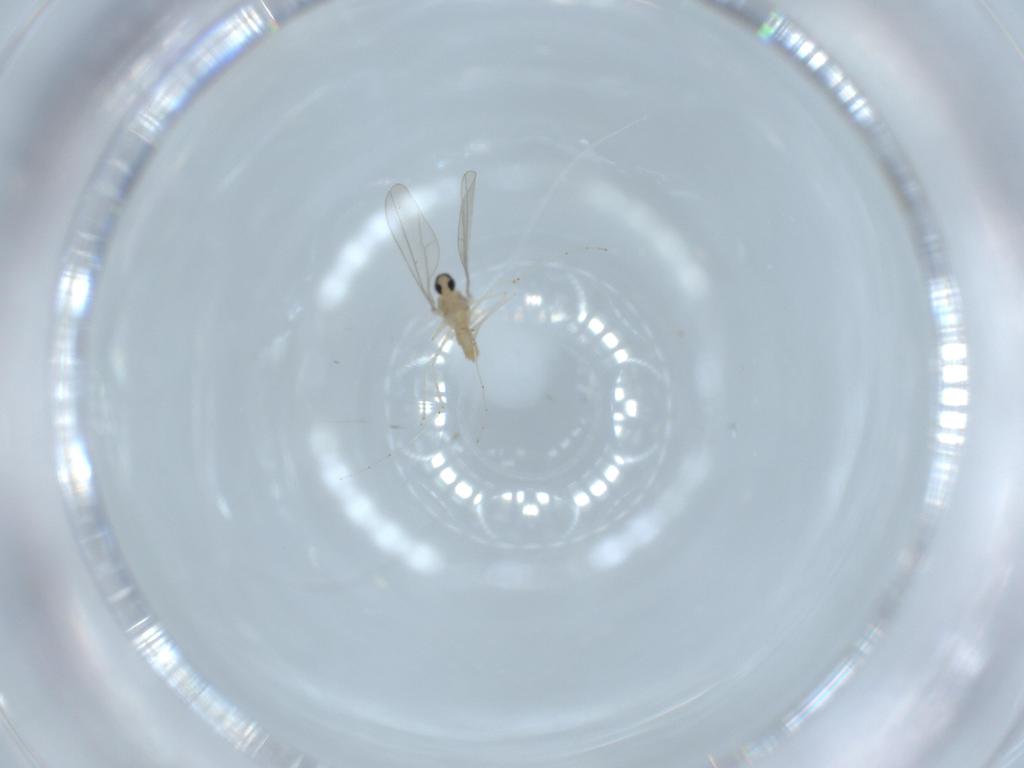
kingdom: Animalia
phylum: Arthropoda
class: Insecta
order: Diptera
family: Cecidomyiidae
